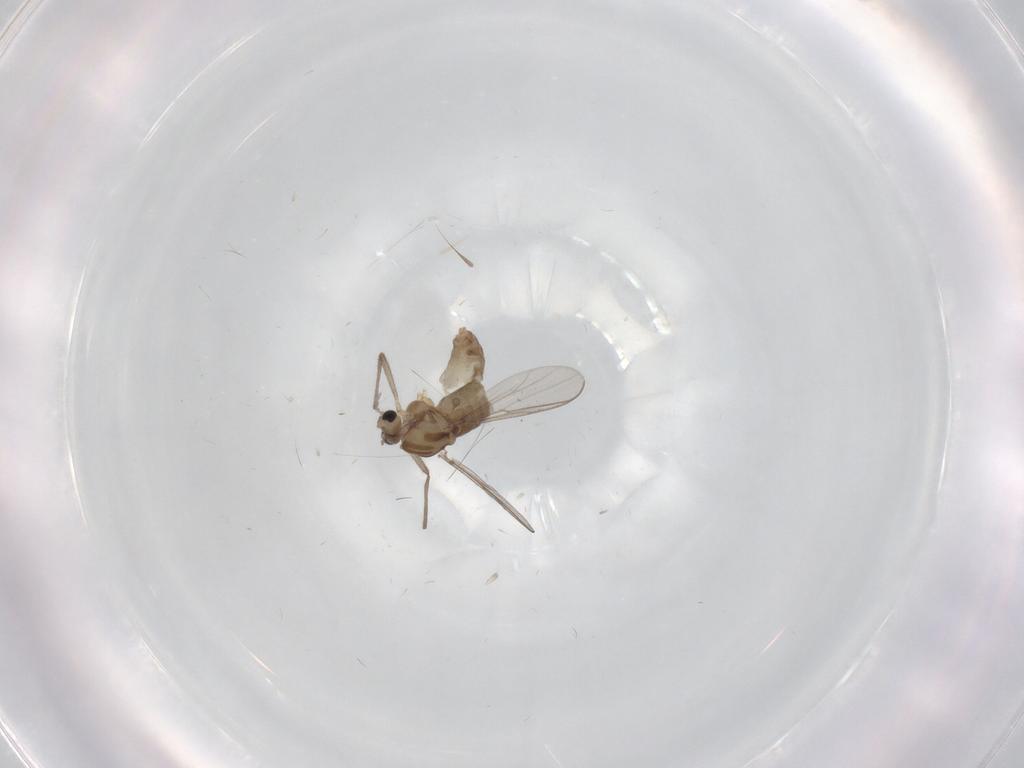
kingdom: Animalia
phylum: Arthropoda
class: Insecta
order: Diptera
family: Chironomidae
